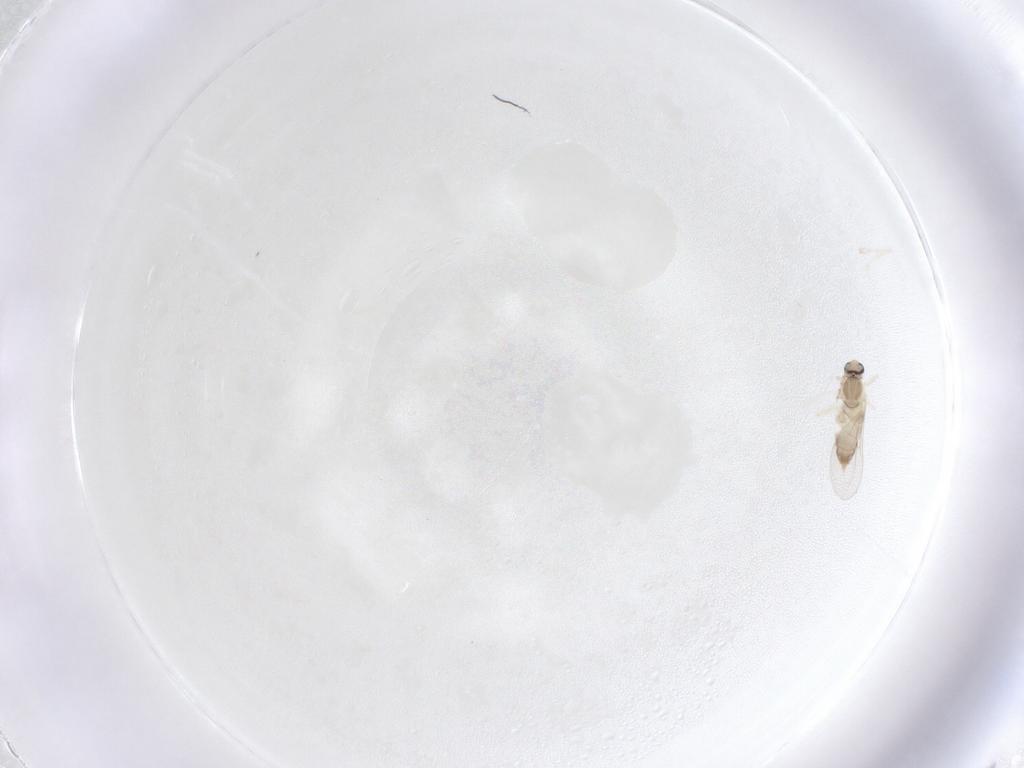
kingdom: Animalia
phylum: Arthropoda
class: Insecta
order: Diptera
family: Cecidomyiidae
